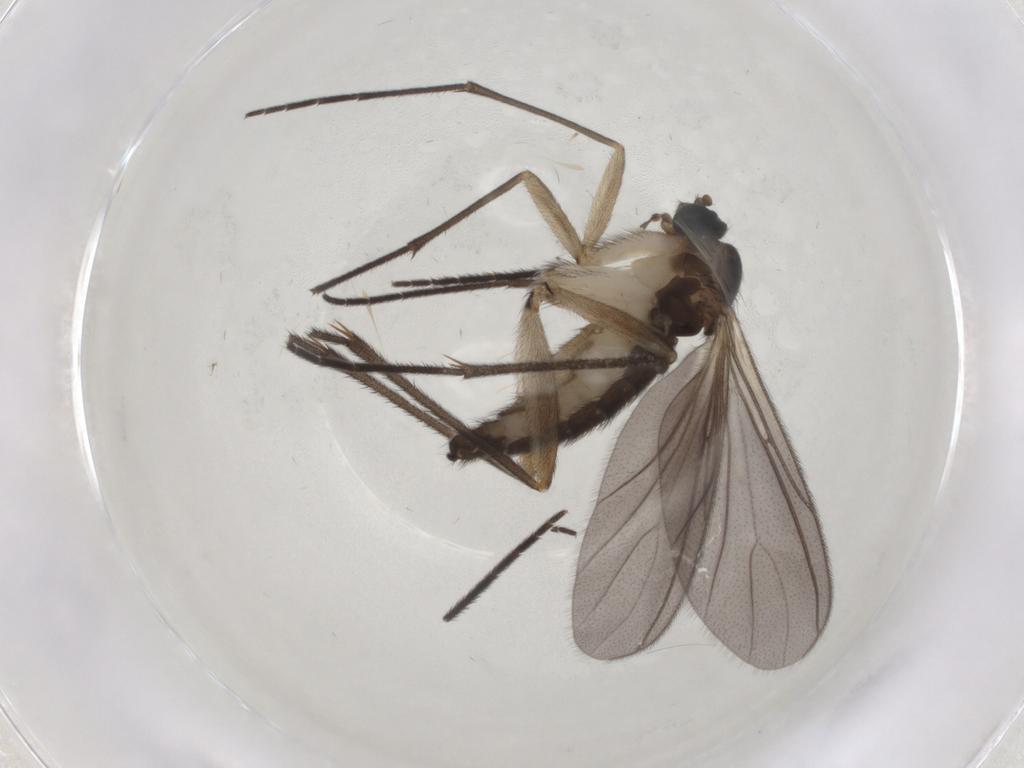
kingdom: Animalia
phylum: Arthropoda
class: Insecta
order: Diptera
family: Sciaridae
